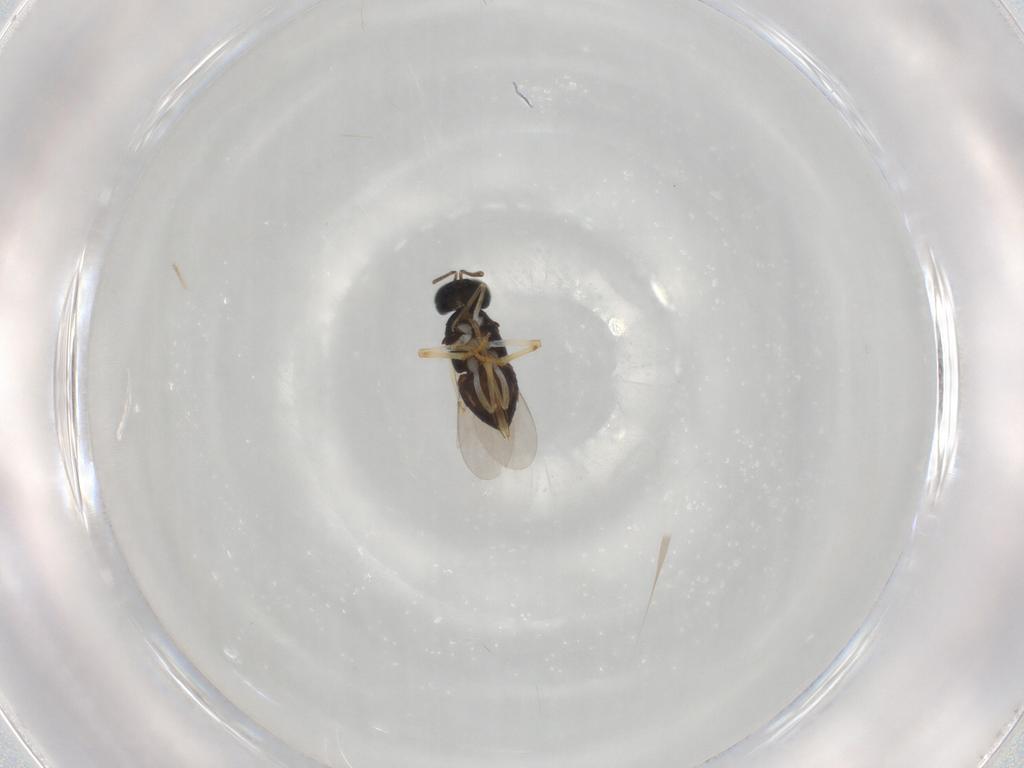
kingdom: Animalia
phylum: Arthropoda
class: Insecta
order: Hymenoptera
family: Encyrtidae
